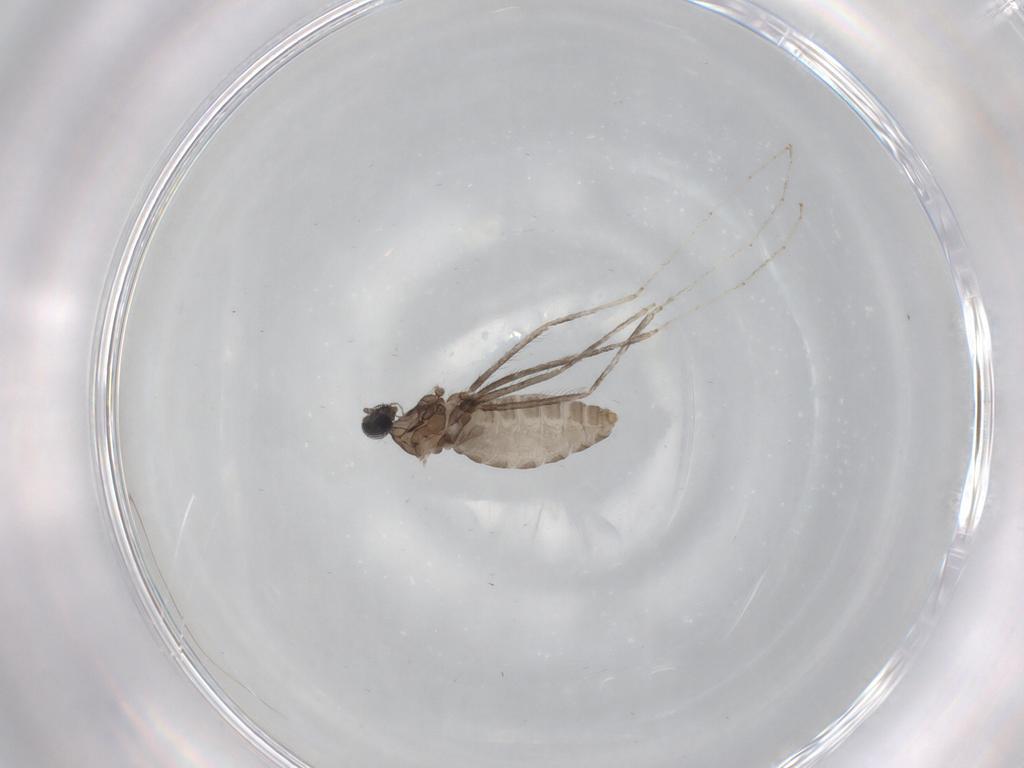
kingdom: Animalia
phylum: Arthropoda
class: Insecta
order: Diptera
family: Cecidomyiidae
